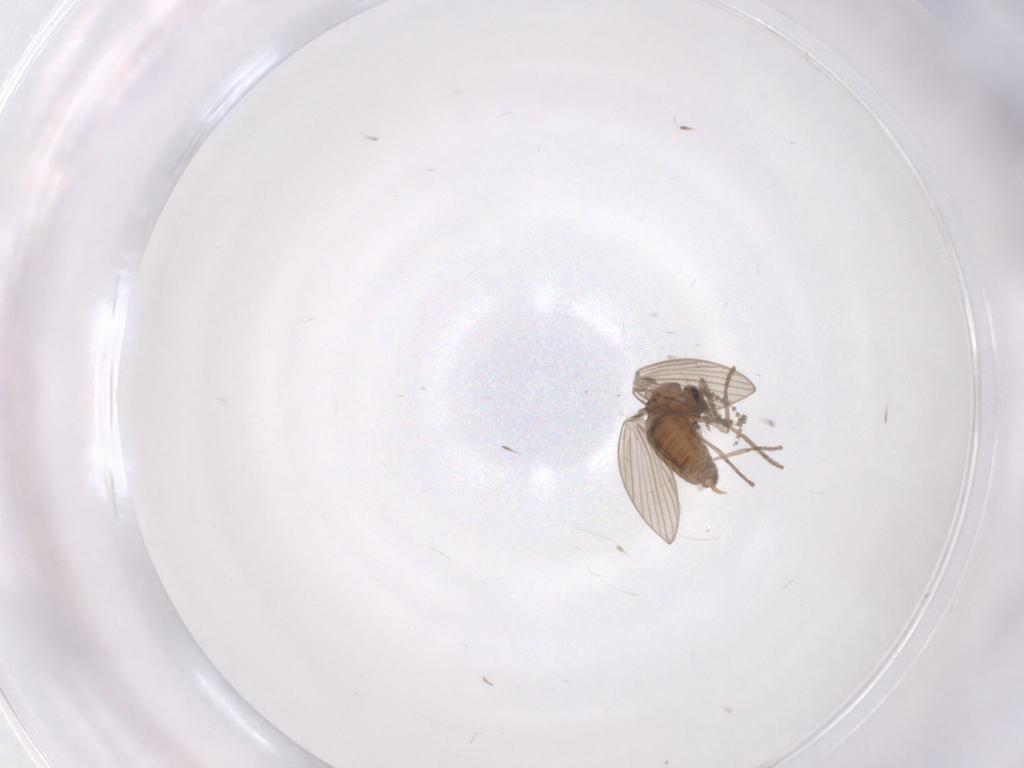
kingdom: Animalia
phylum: Arthropoda
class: Insecta
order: Diptera
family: Psychodidae
